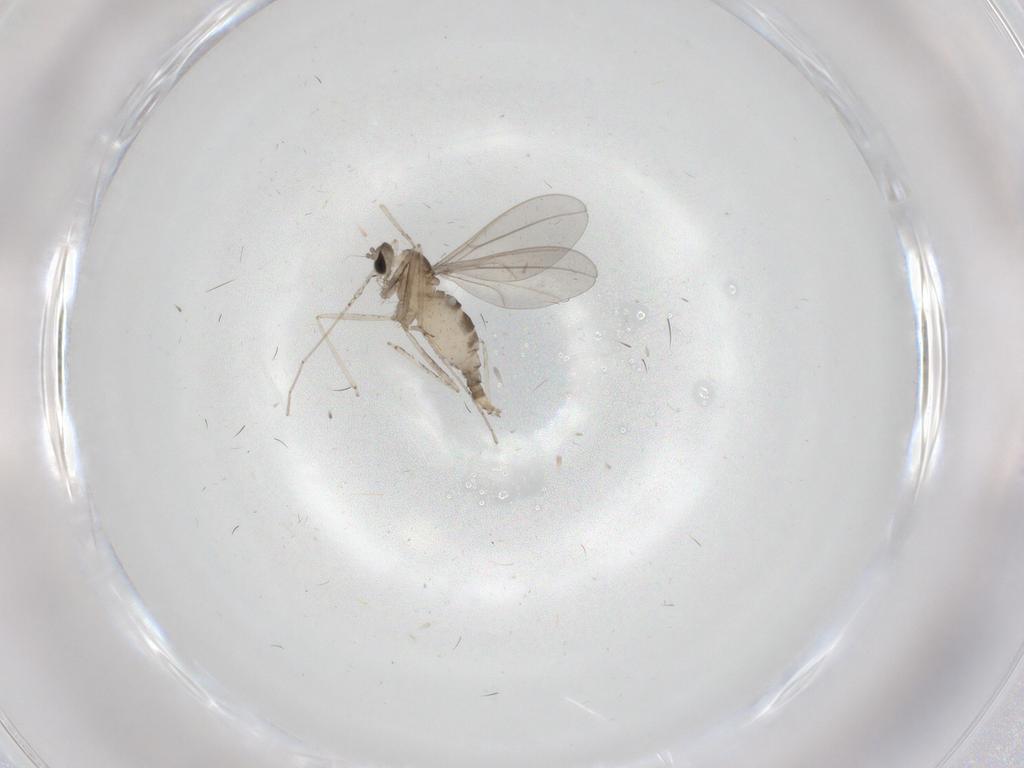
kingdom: Animalia
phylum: Arthropoda
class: Insecta
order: Diptera
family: Cecidomyiidae
